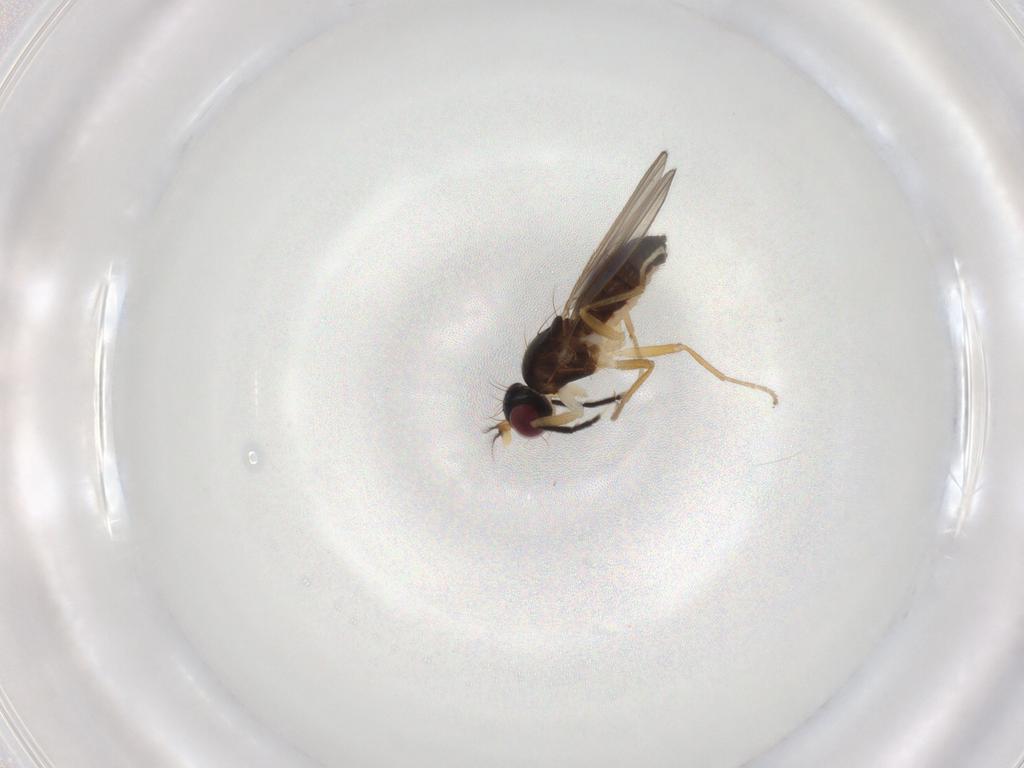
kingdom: Animalia
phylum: Arthropoda
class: Insecta
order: Diptera
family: Anthomyzidae
